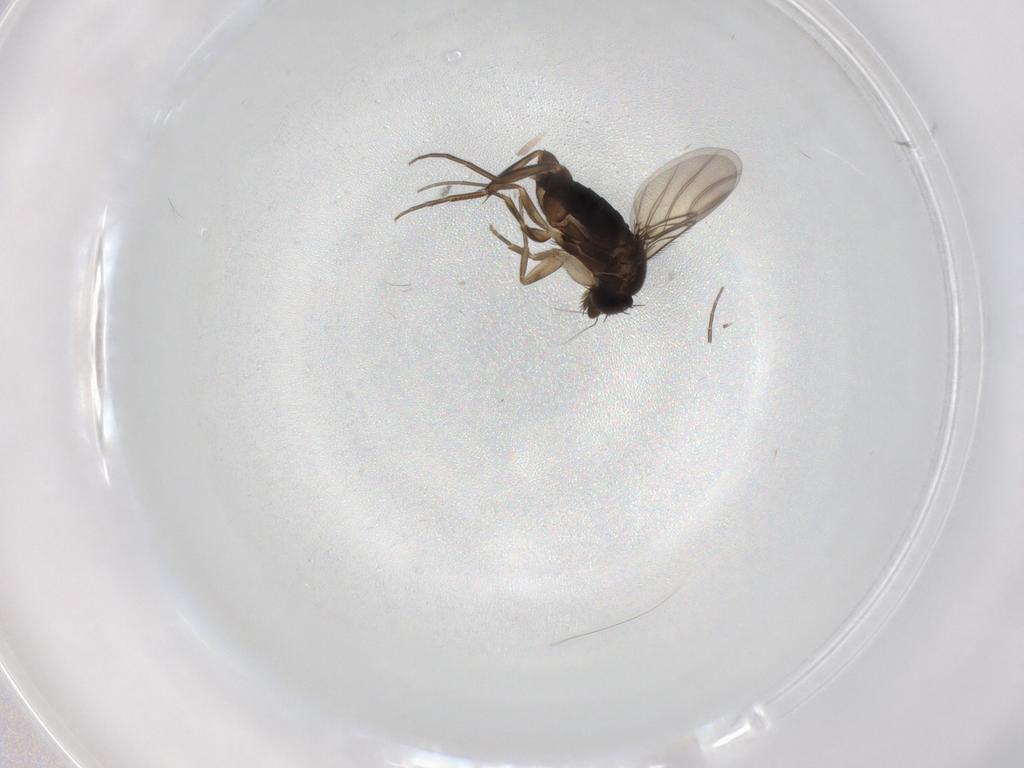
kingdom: Animalia
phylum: Arthropoda
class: Insecta
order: Diptera
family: Phoridae
